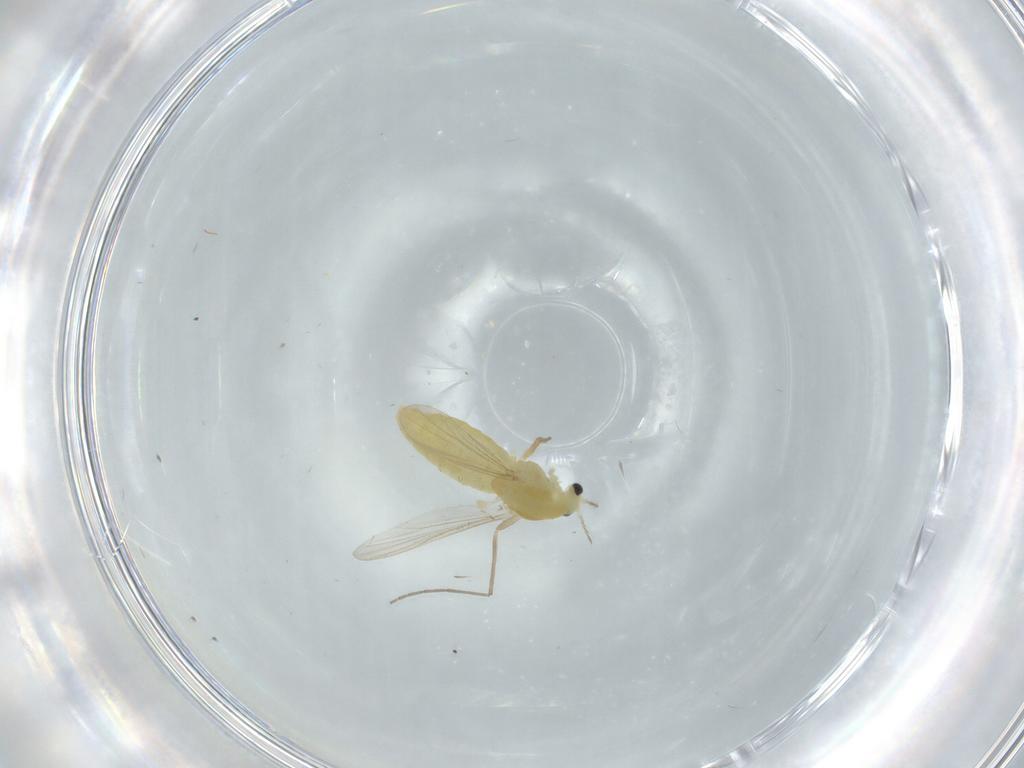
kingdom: Animalia
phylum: Arthropoda
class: Insecta
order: Diptera
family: Chironomidae
